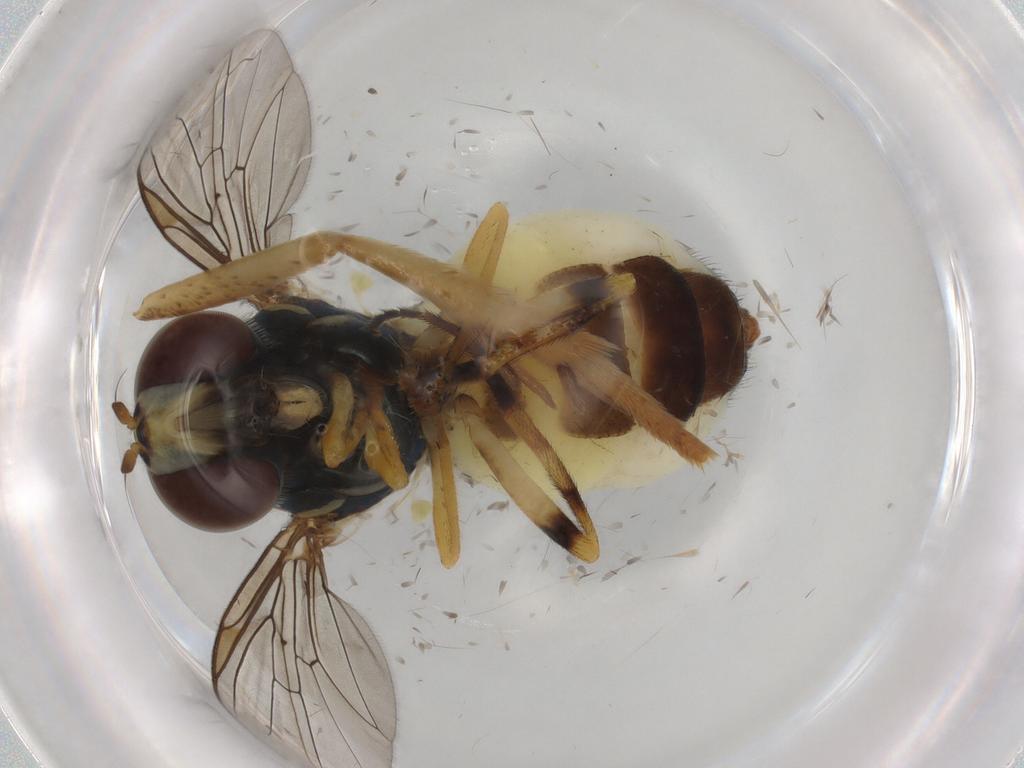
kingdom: Animalia
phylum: Arthropoda
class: Insecta
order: Diptera
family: Syrphidae
